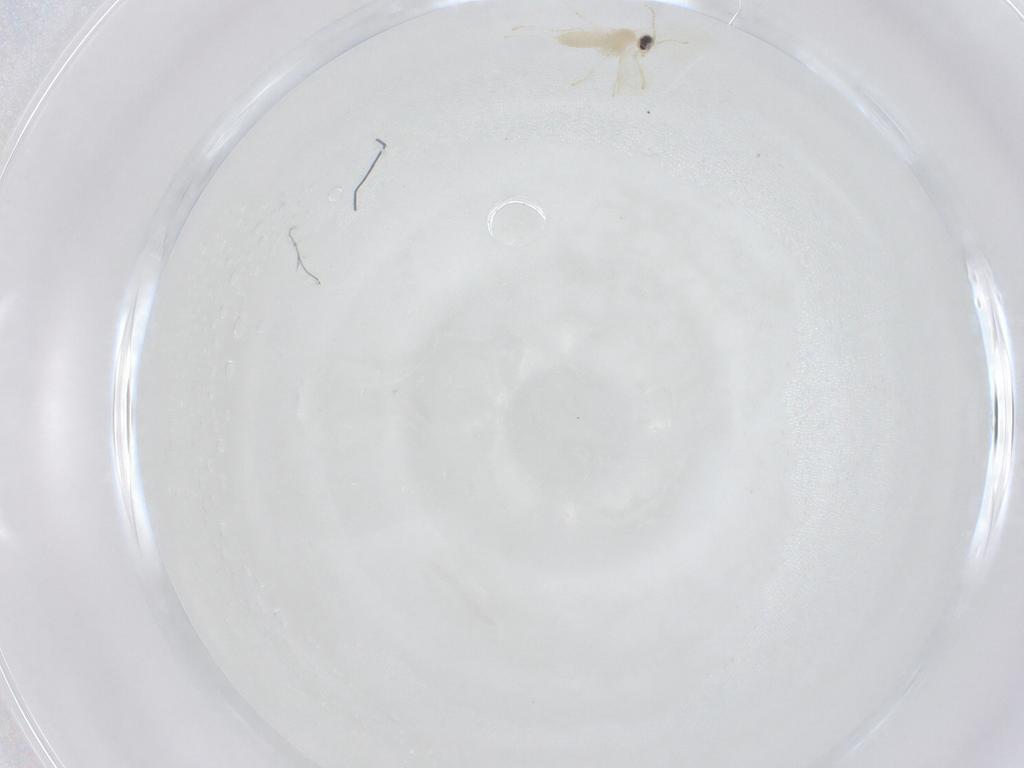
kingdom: Animalia
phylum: Arthropoda
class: Insecta
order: Diptera
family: Cecidomyiidae
